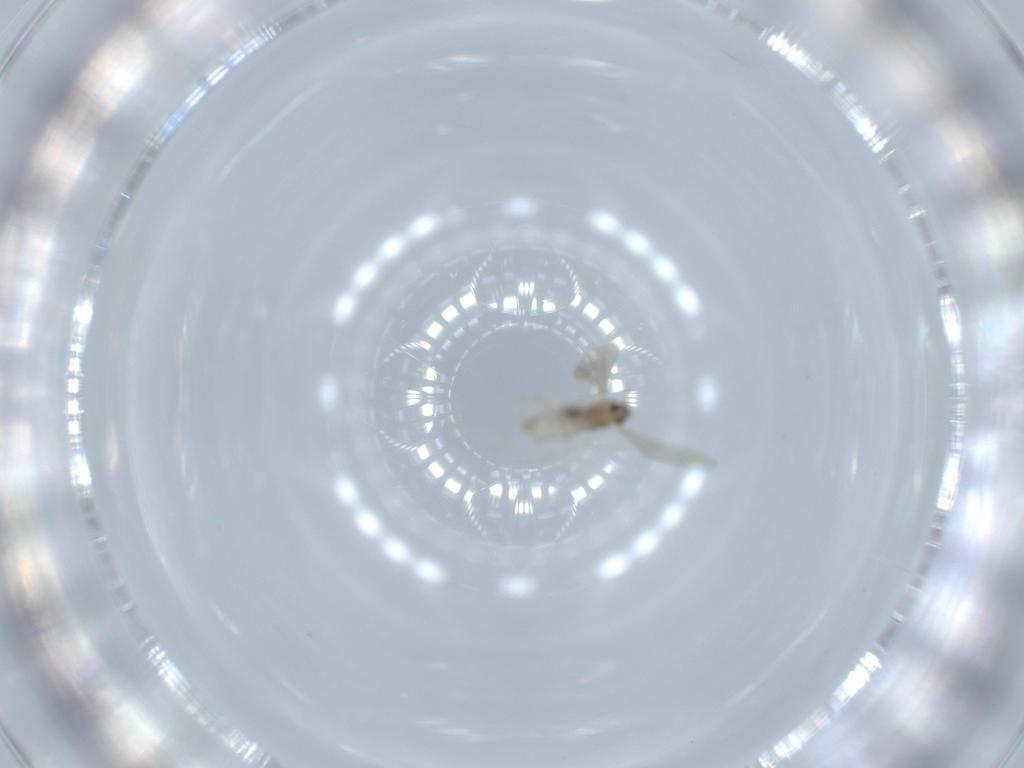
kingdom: Animalia
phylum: Arthropoda
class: Insecta
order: Diptera
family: Cecidomyiidae
